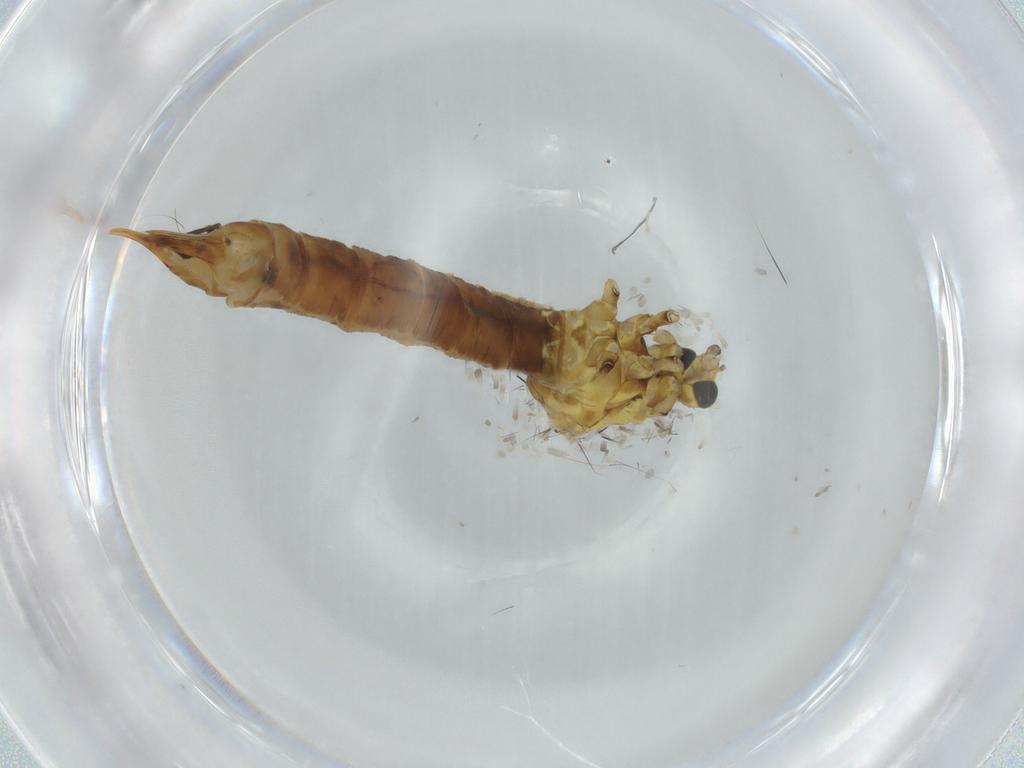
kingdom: Animalia
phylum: Arthropoda
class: Insecta
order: Diptera
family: Limoniidae
